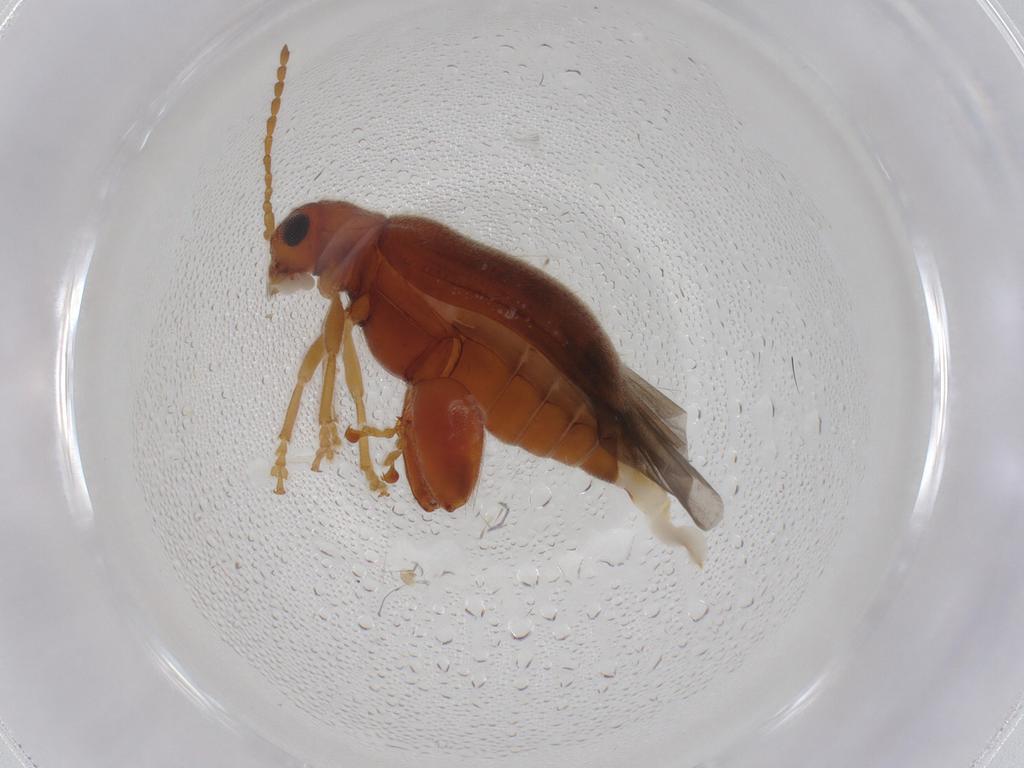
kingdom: Animalia
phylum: Arthropoda
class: Insecta
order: Coleoptera
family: Chrysomelidae
